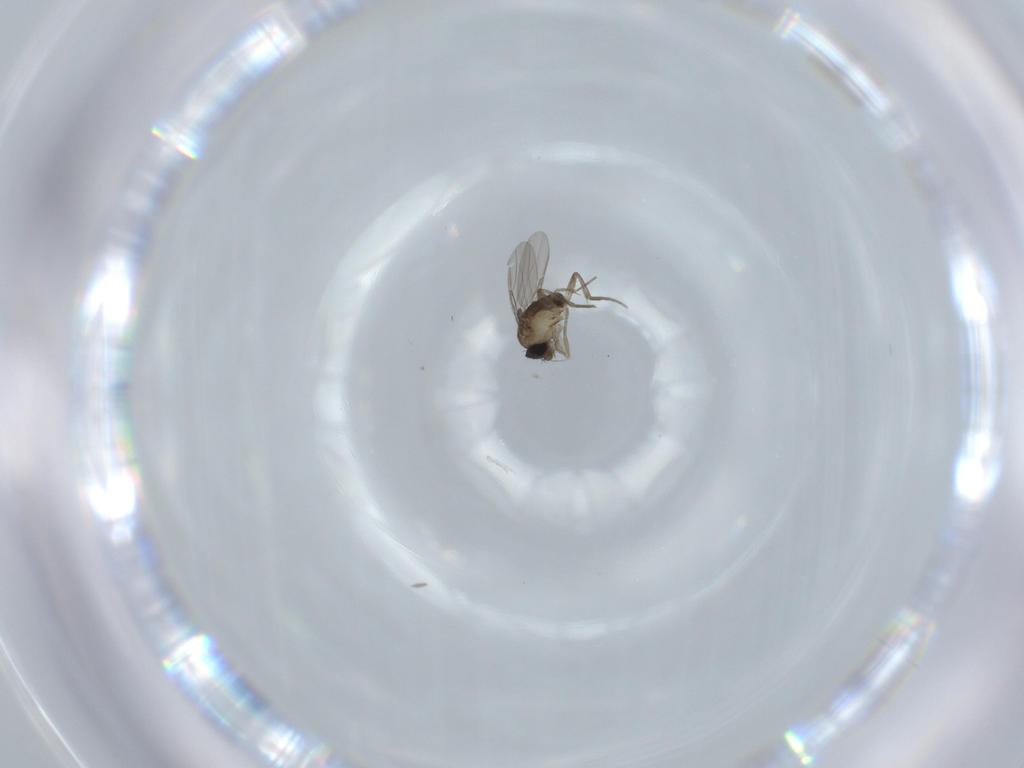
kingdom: Animalia
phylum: Arthropoda
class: Insecta
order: Diptera
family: Phoridae
